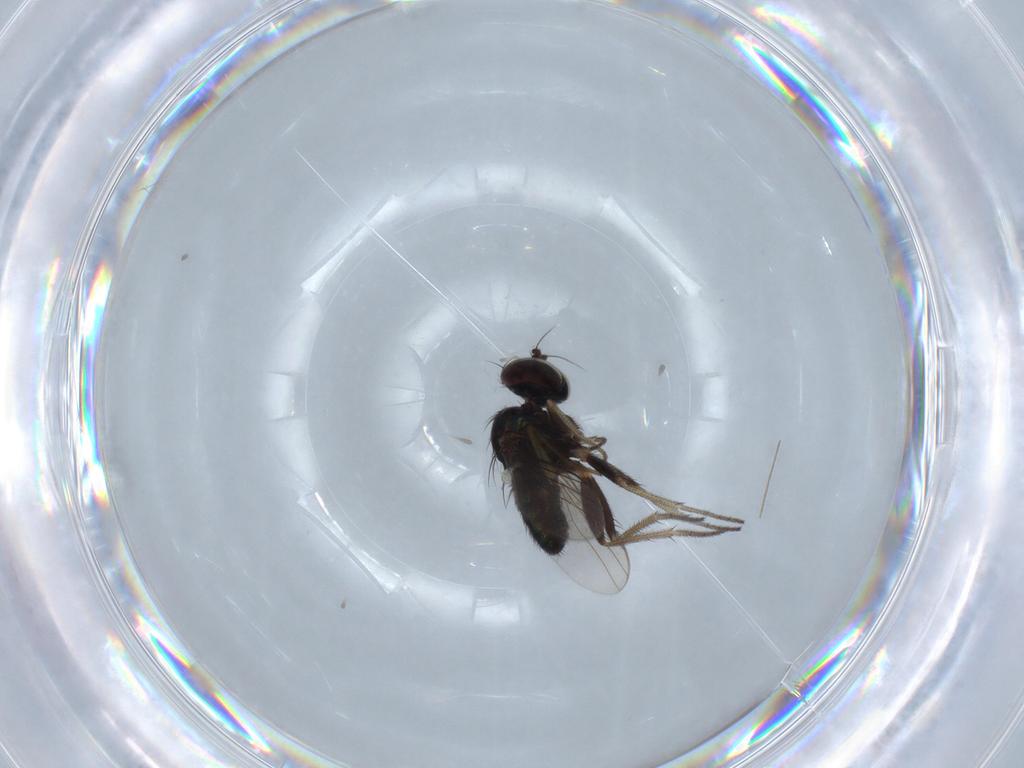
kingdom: Animalia
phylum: Arthropoda
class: Insecta
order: Diptera
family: Dolichopodidae
